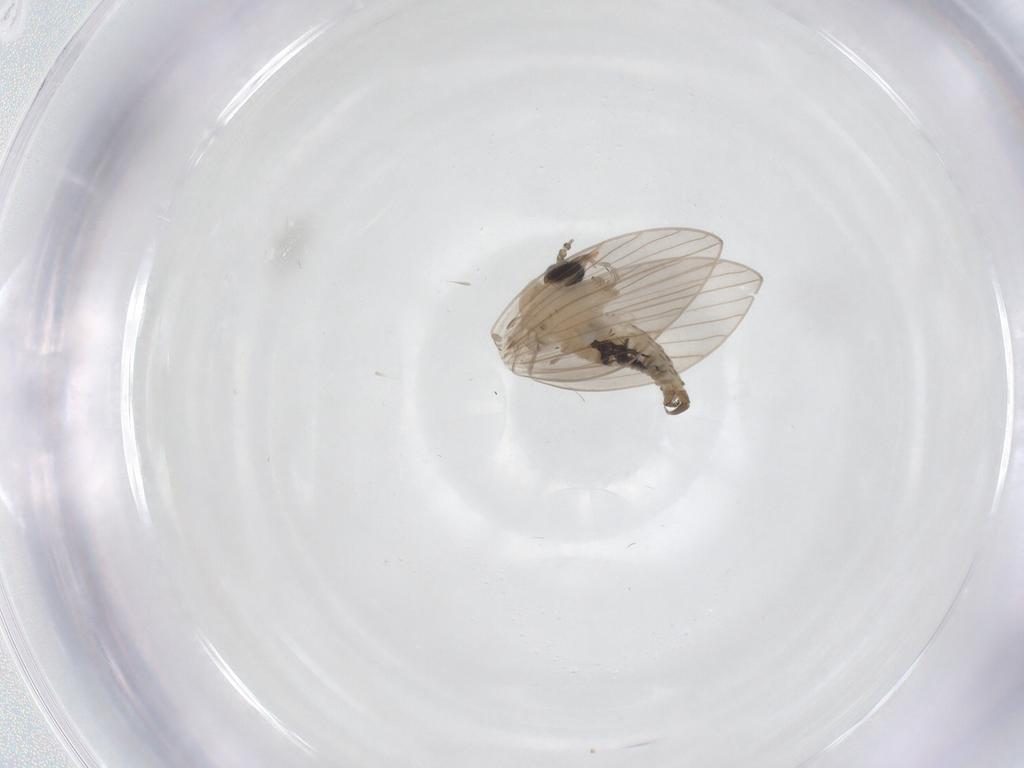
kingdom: Animalia
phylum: Arthropoda
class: Insecta
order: Diptera
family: Psychodidae
